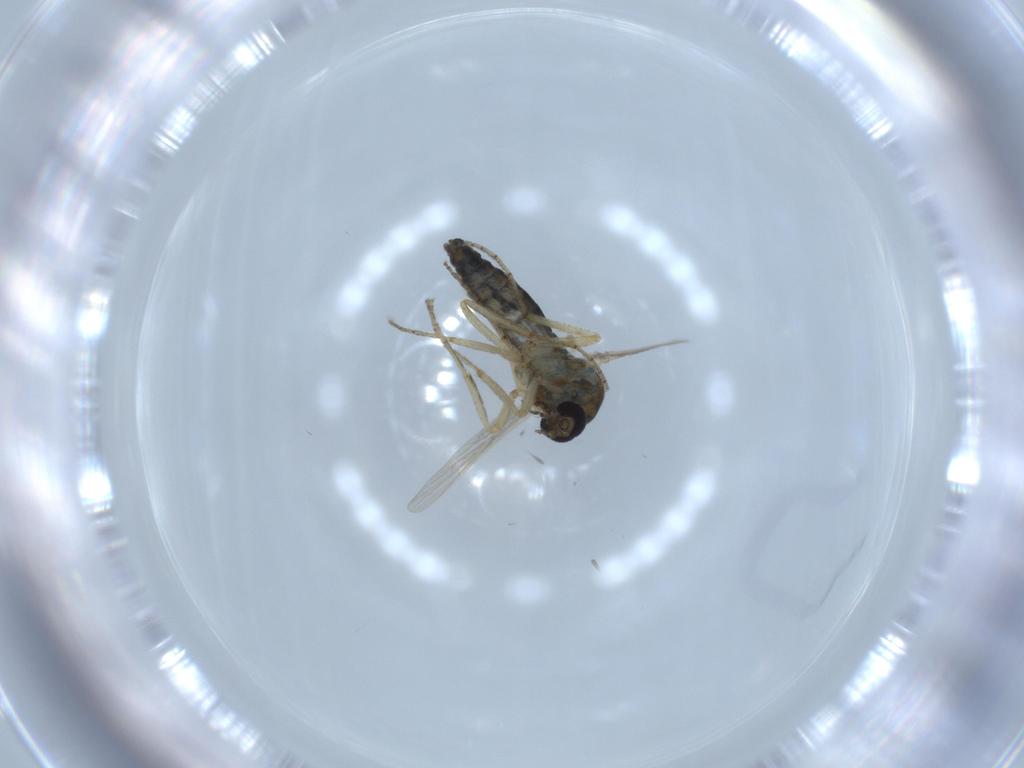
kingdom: Animalia
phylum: Arthropoda
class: Insecta
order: Diptera
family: Ceratopogonidae
